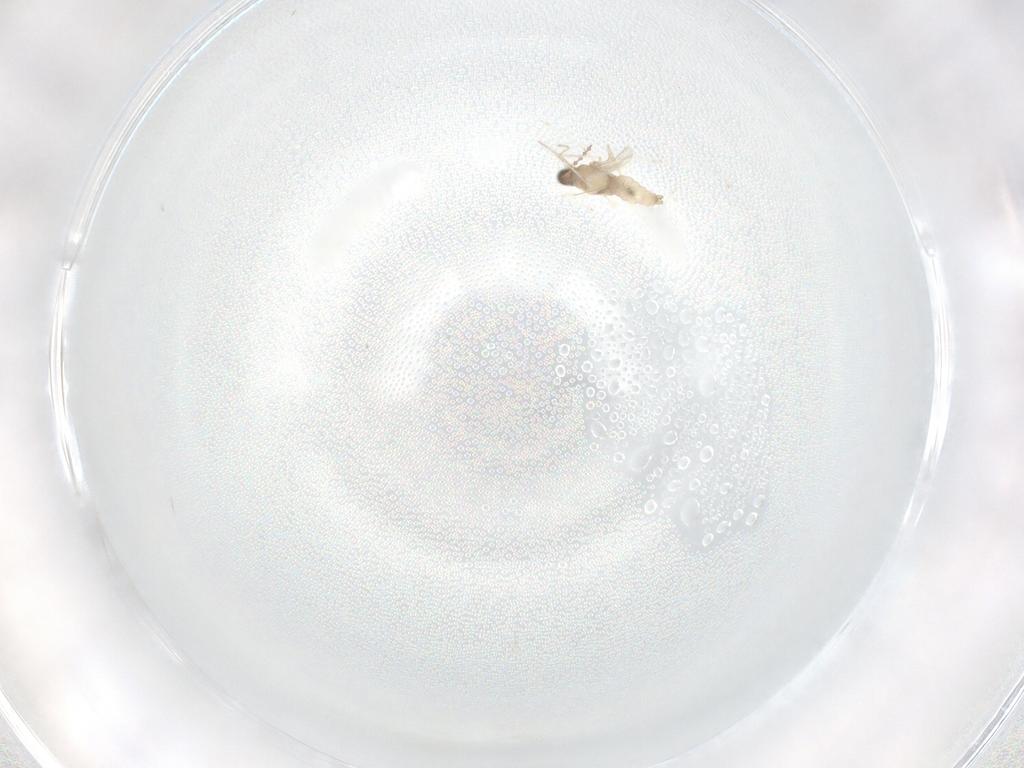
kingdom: Animalia
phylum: Arthropoda
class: Insecta
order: Diptera
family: Cecidomyiidae
